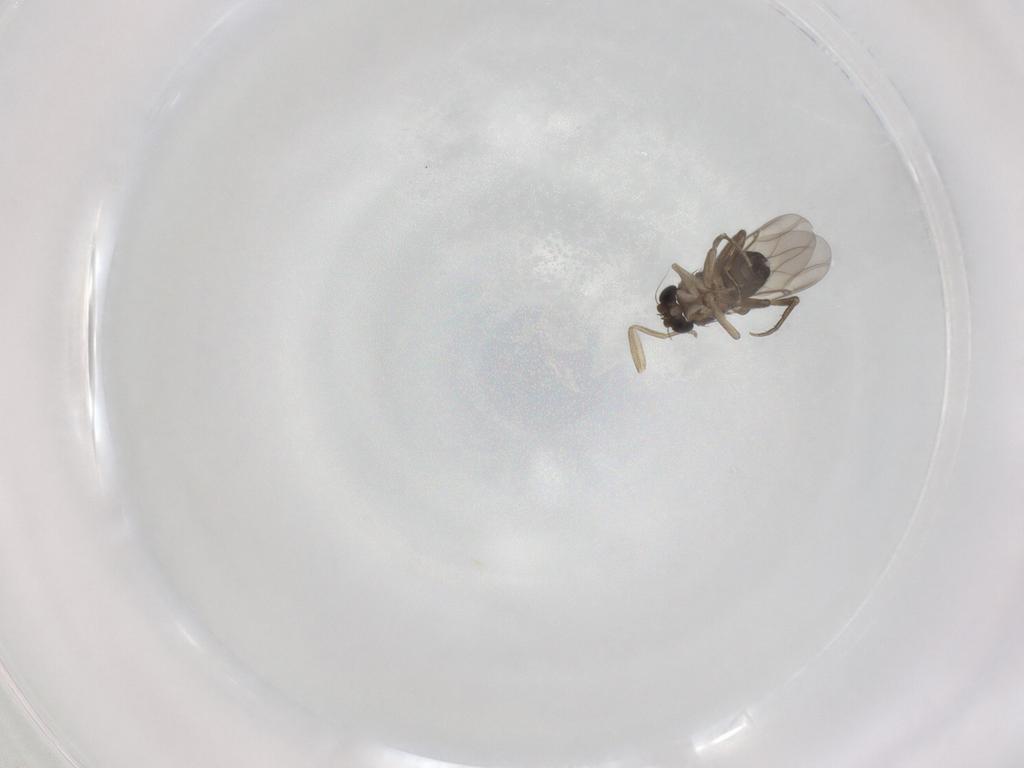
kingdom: Animalia
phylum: Arthropoda
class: Insecta
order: Diptera
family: Phoridae
